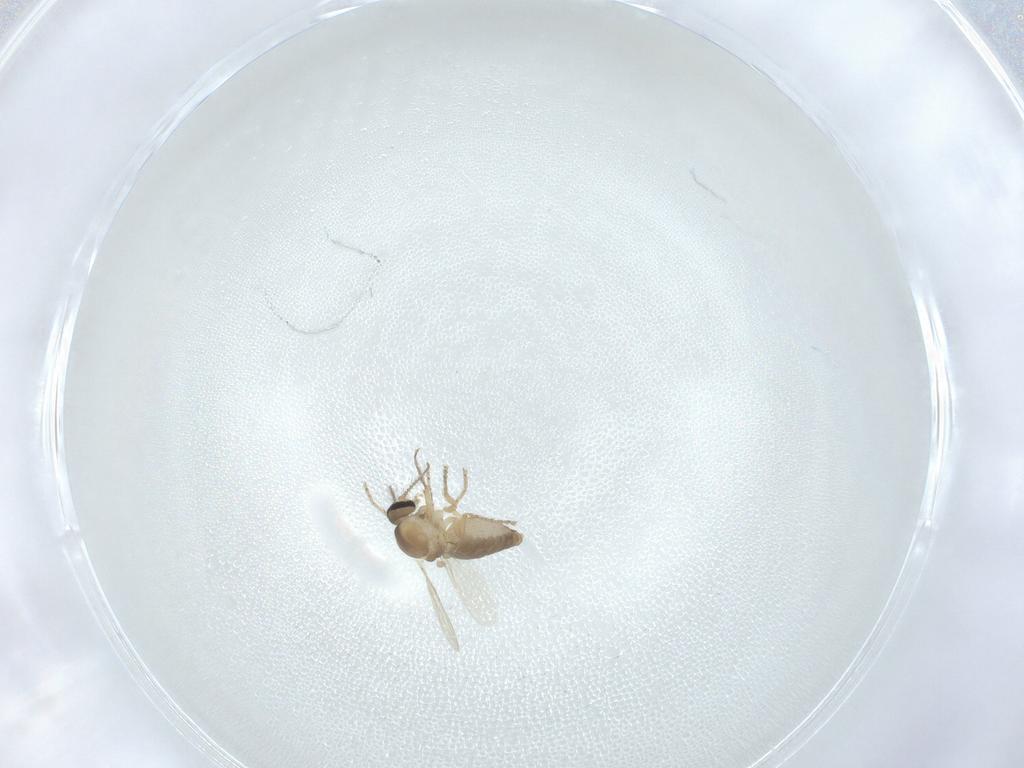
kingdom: Animalia
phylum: Arthropoda
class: Insecta
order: Diptera
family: Ceratopogonidae
